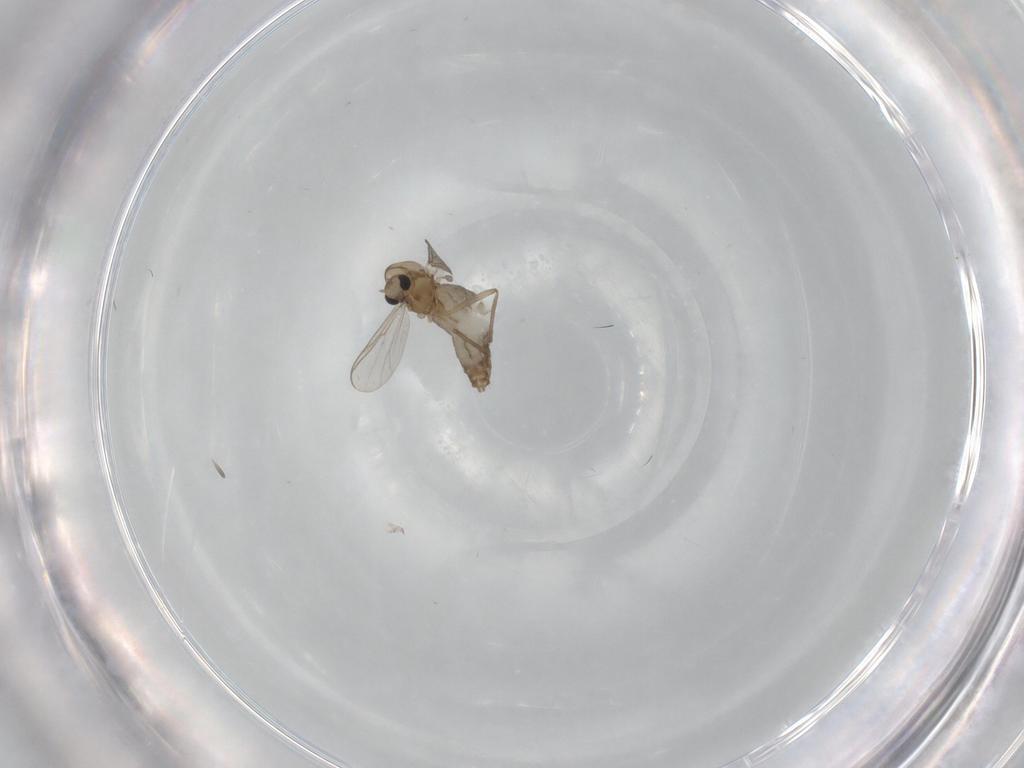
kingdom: Animalia
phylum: Arthropoda
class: Insecta
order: Diptera
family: Chironomidae
